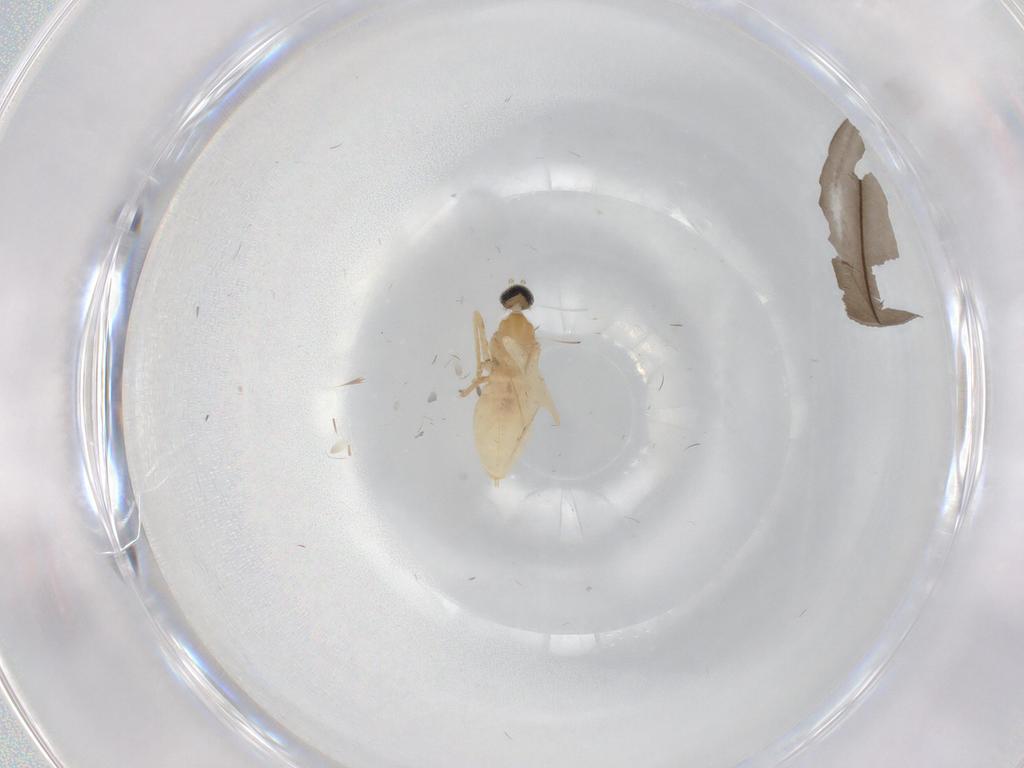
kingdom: Animalia
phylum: Arthropoda
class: Insecta
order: Diptera
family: Cecidomyiidae
